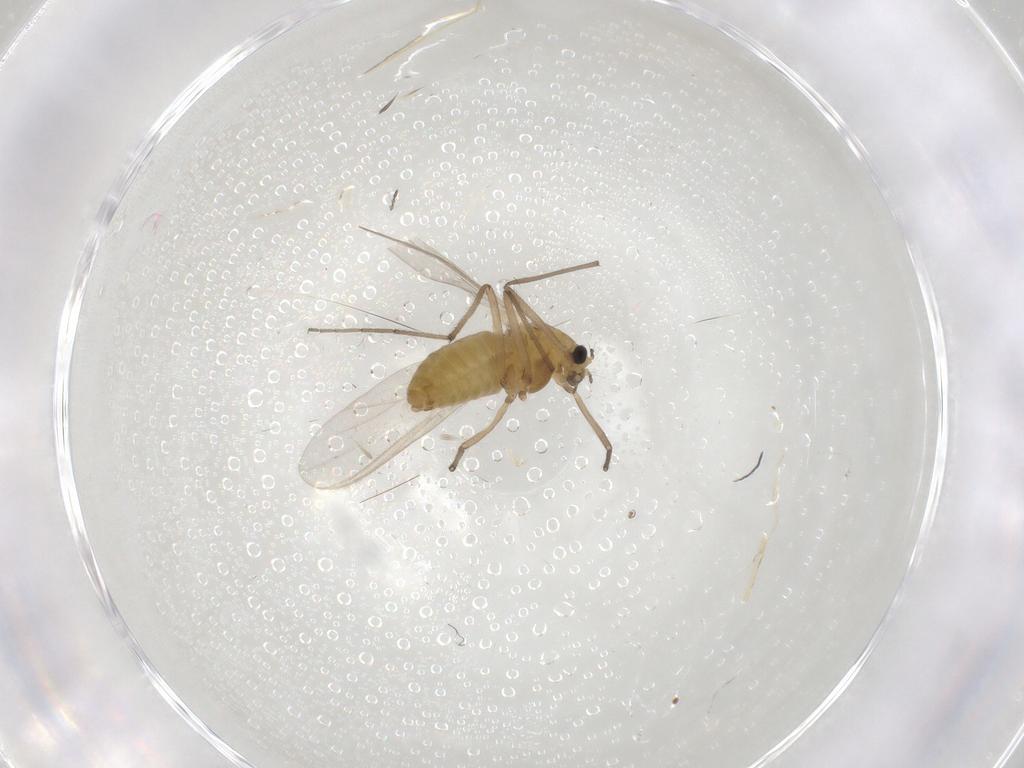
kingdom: Animalia
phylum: Arthropoda
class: Insecta
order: Diptera
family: Chironomidae
